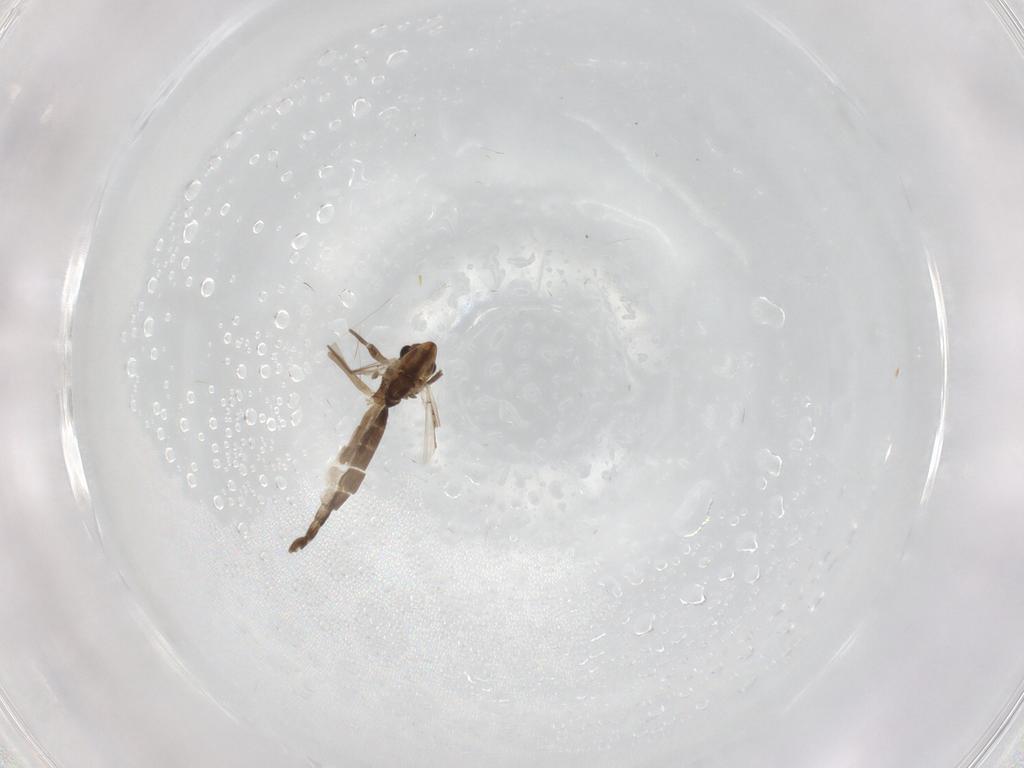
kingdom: Animalia
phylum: Arthropoda
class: Insecta
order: Diptera
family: Chironomidae
